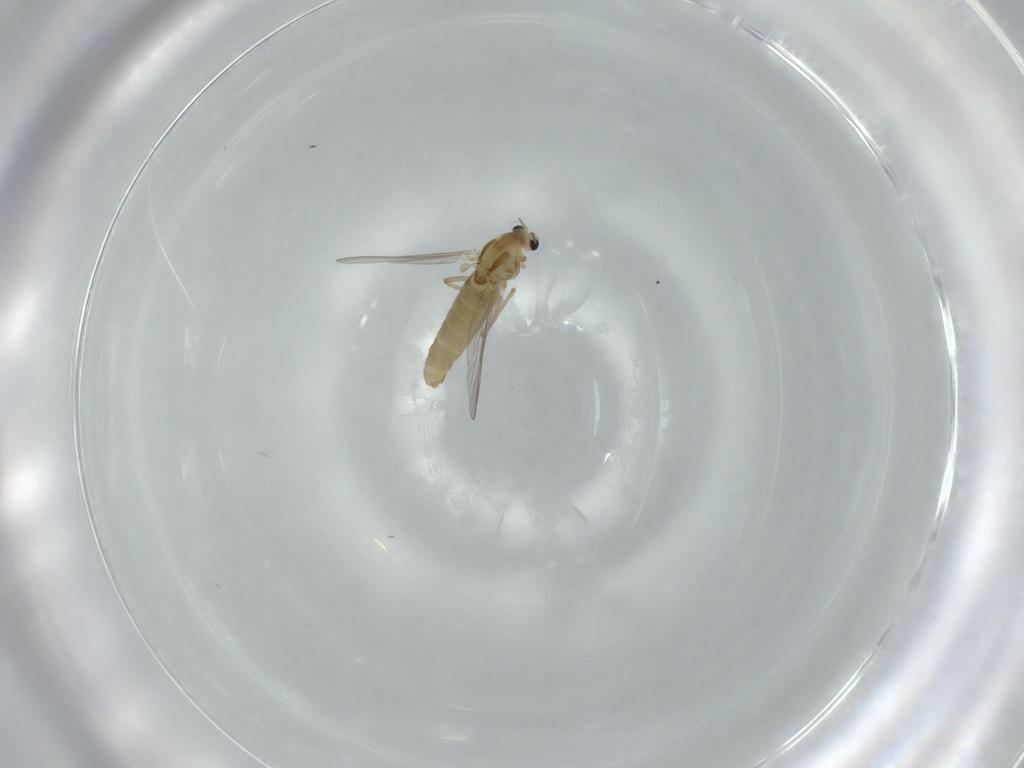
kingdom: Animalia
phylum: Arthropoda
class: Insecta
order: Diptera
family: Chironomidae
